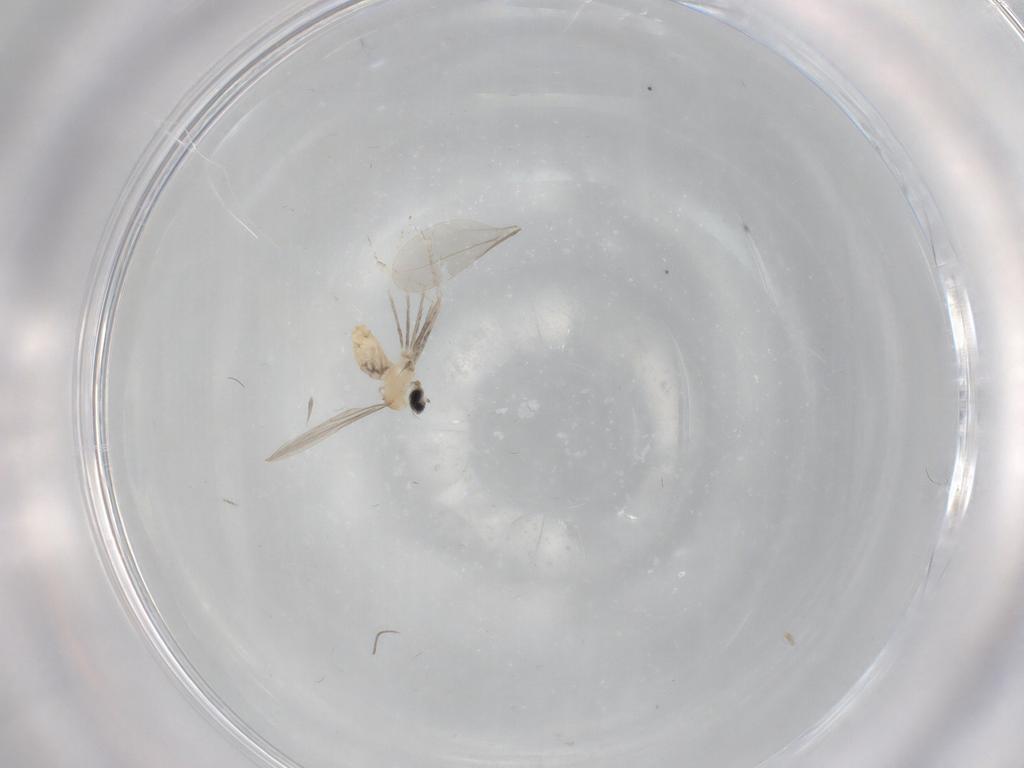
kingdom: Animalia
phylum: Arthropoda
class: Insecta
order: Diptera
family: Cecidomyiidae
